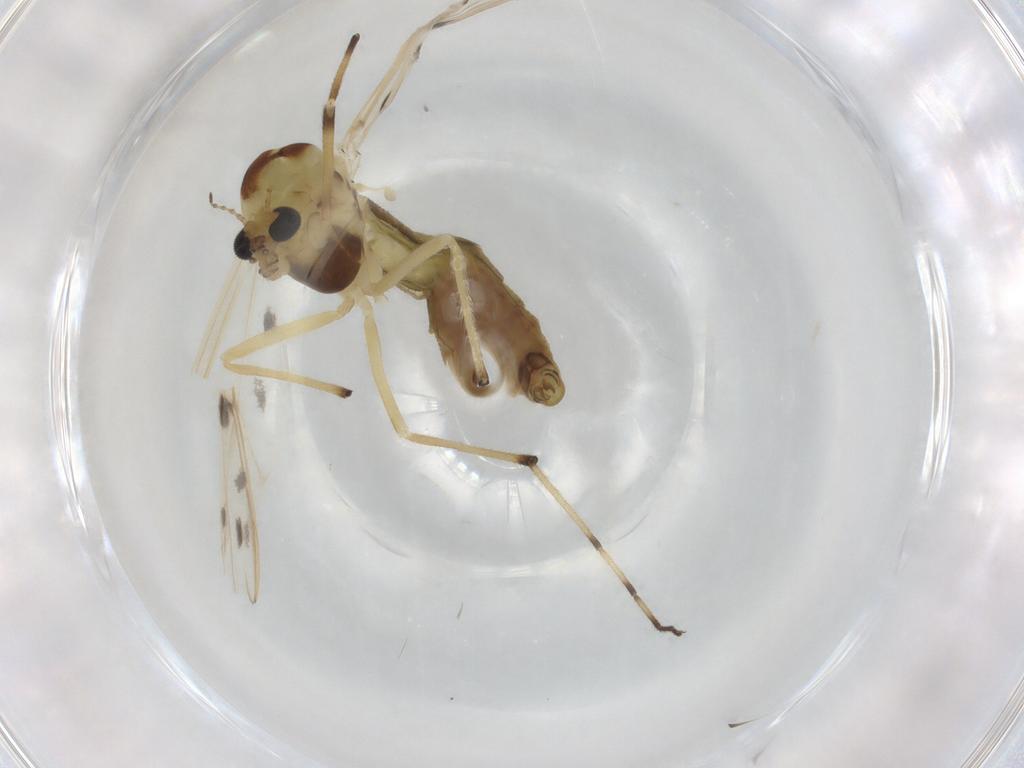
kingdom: Animalia
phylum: Arthropoda
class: Insecta
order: Diptera
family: Chironomidae
